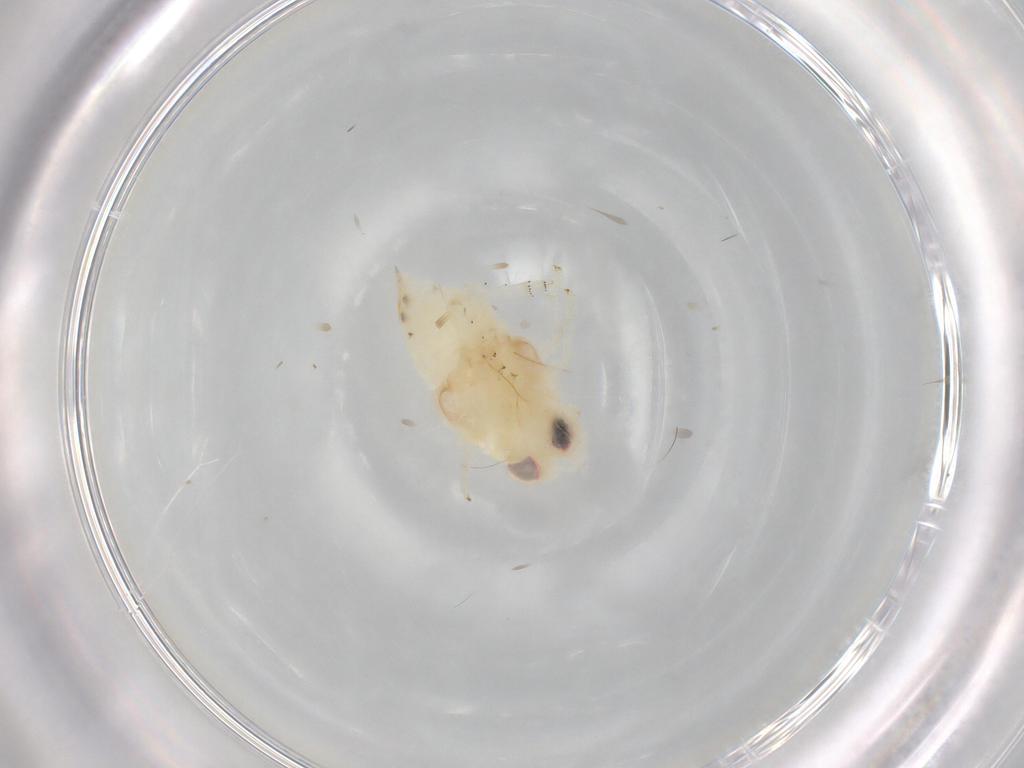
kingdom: Animalia
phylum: Arthropoda
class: Insecta
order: Hemiptera
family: Nogodinidae
